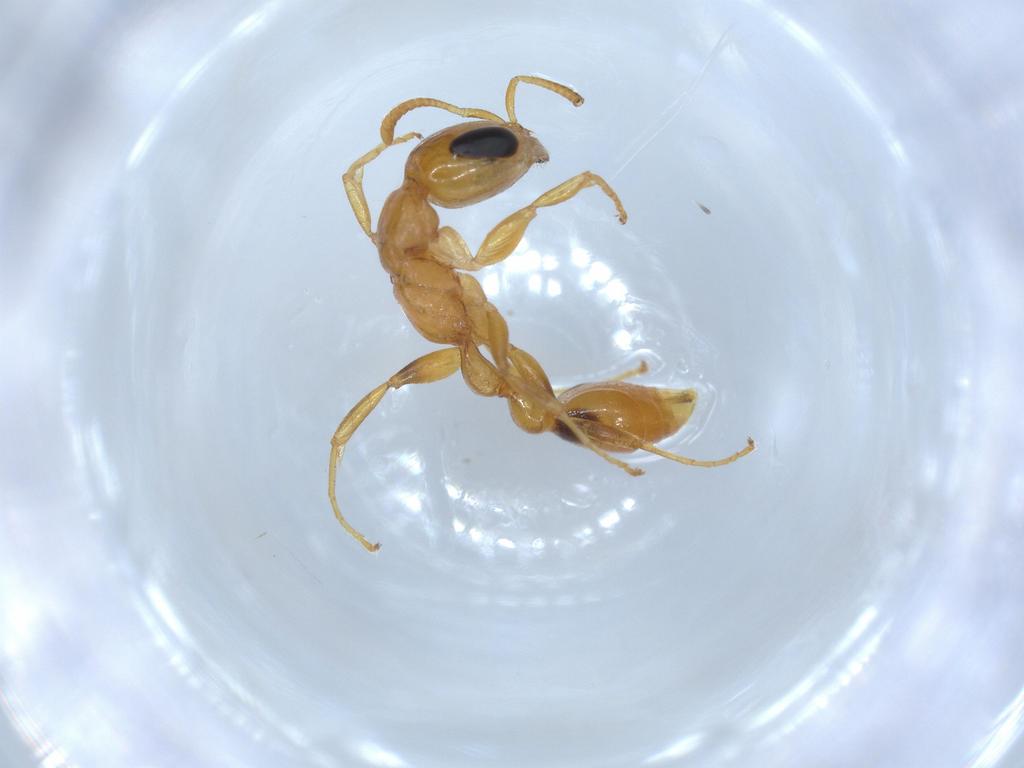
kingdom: Animalia
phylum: Arthropoda
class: Insecta
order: Hymenoptera
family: Formicidae
